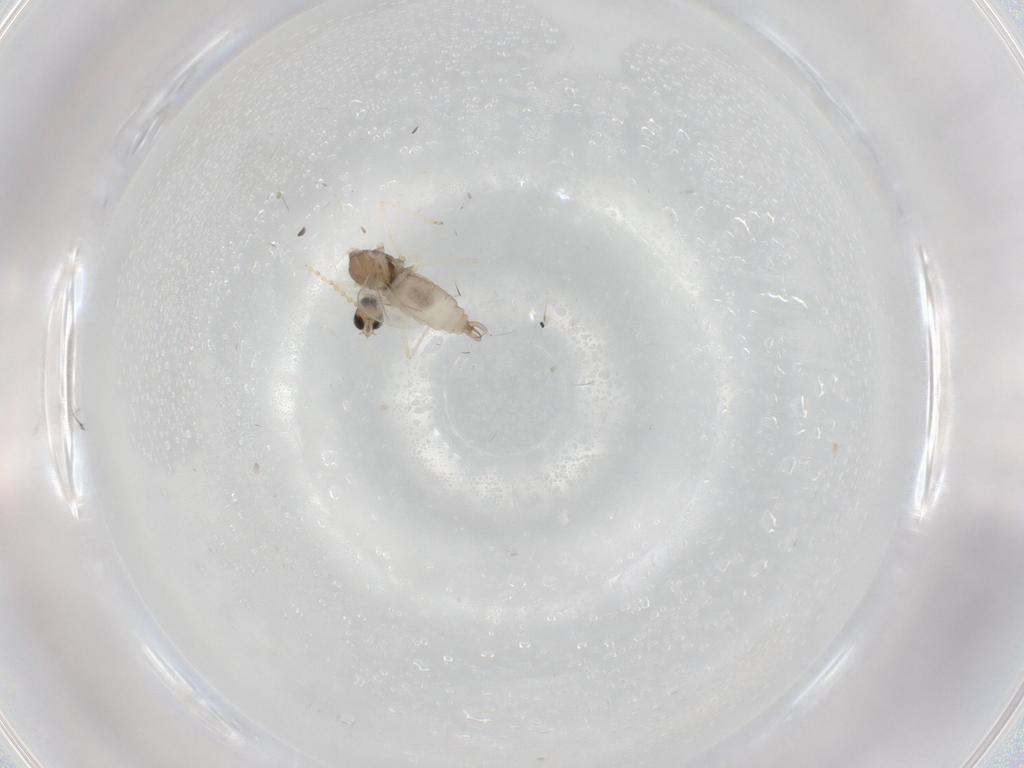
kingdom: Animalia
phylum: Arthropoda
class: Insecta
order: Diptera
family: Cecidomyiidae
